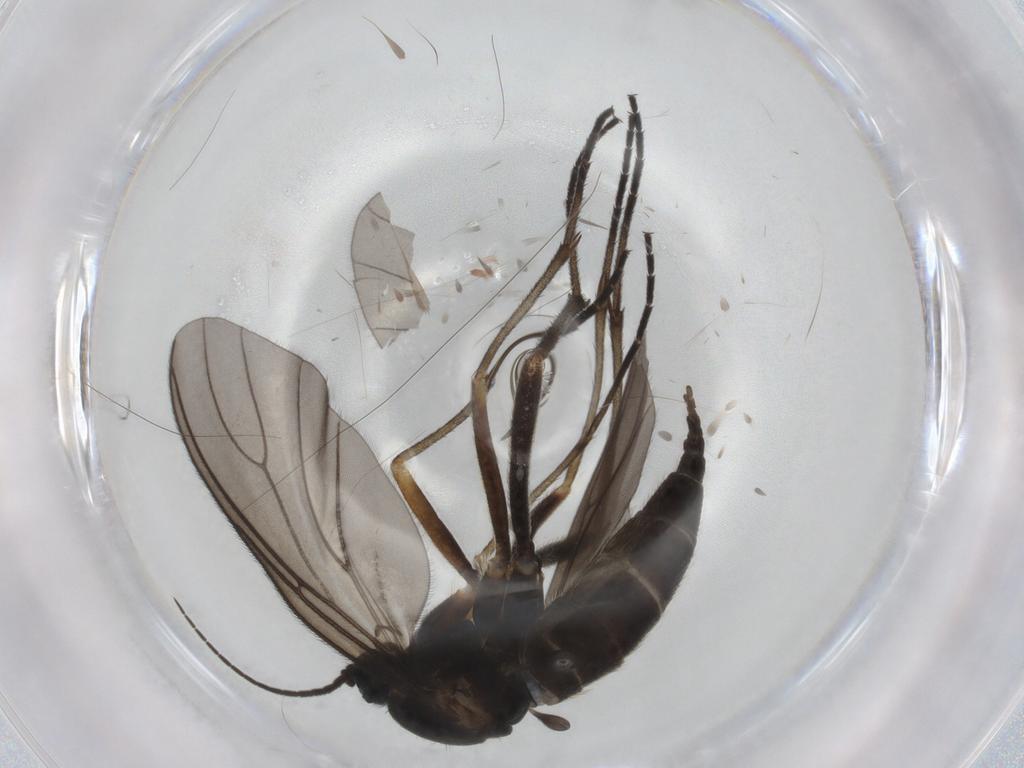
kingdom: Animalia
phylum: Arthropoda
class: Insecta
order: Diptera
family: Sciaridae
